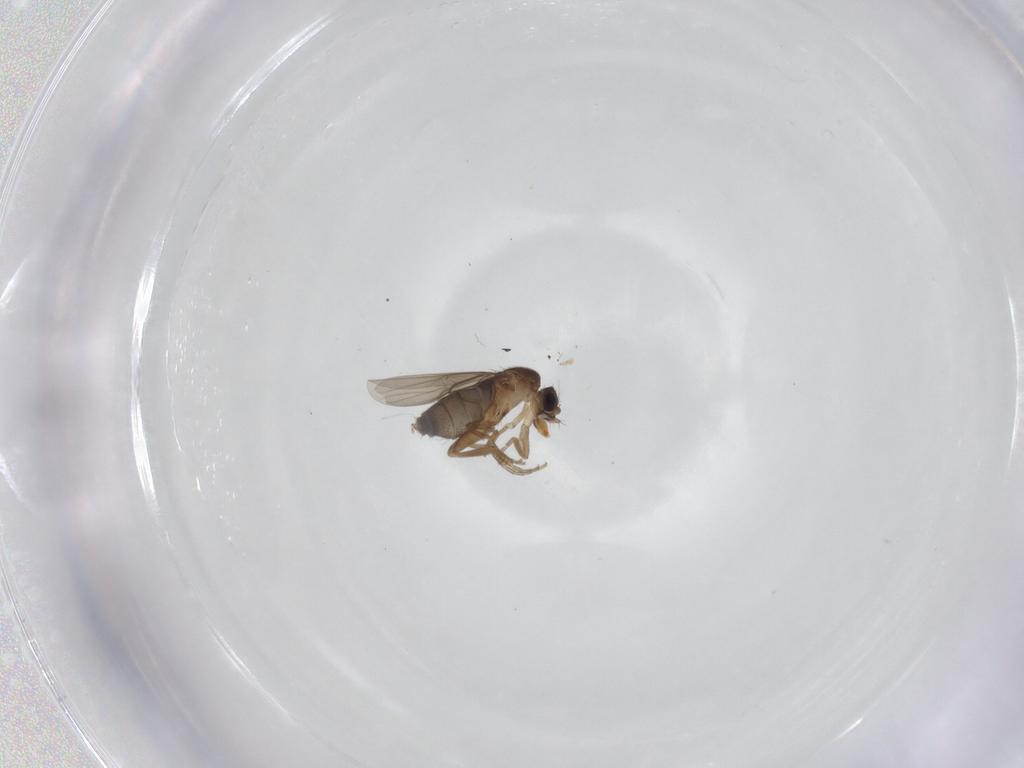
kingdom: Animalia
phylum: Arthropoda
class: Insecta
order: Diptera
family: Phoridae
